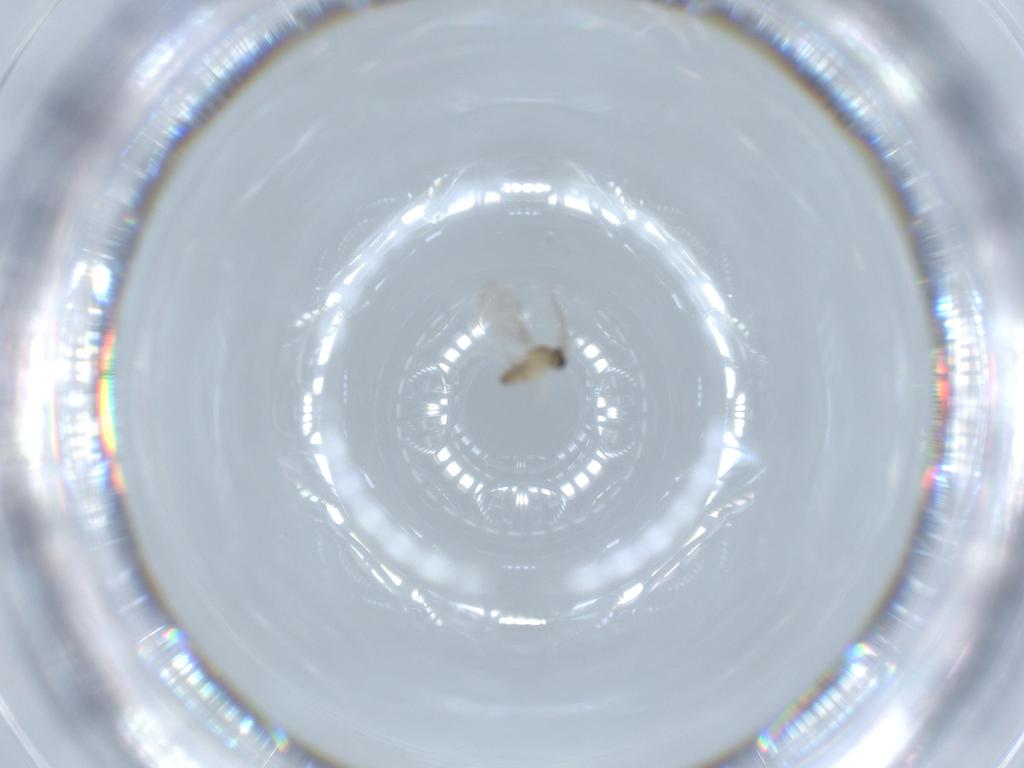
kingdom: Animalia
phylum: Arthropoda
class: Insecta
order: Diptera
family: Cecidomyiidae
